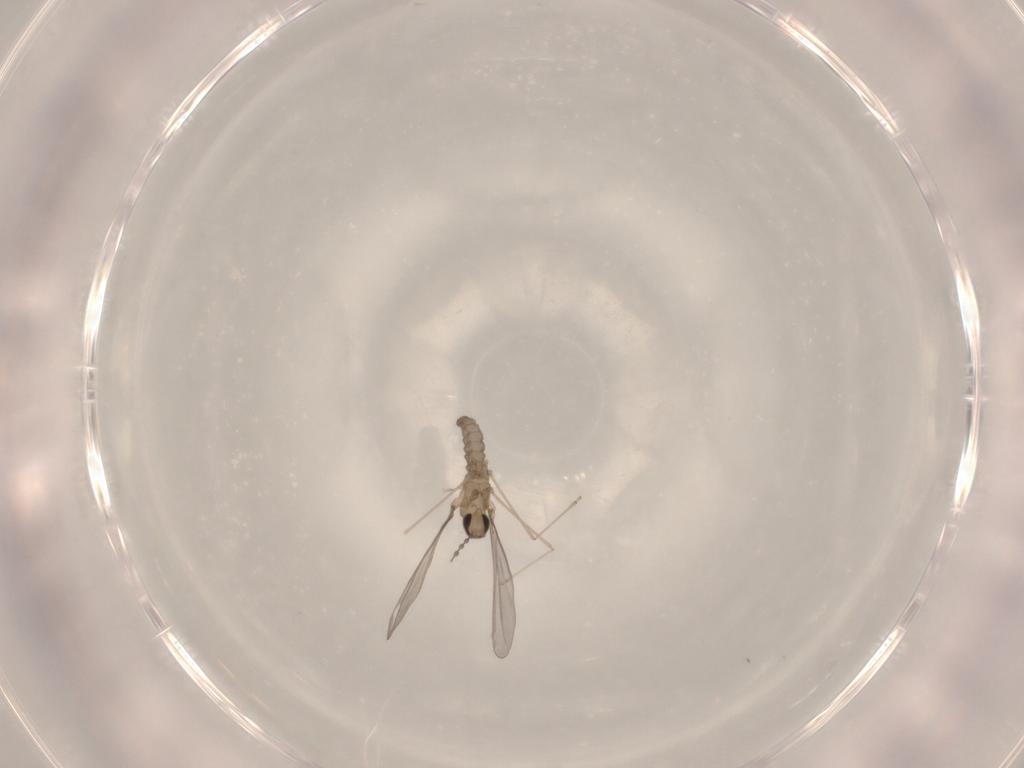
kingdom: Animalia
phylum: Arthropoda
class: Insecta
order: Diptera
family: Cecidomyiidae
